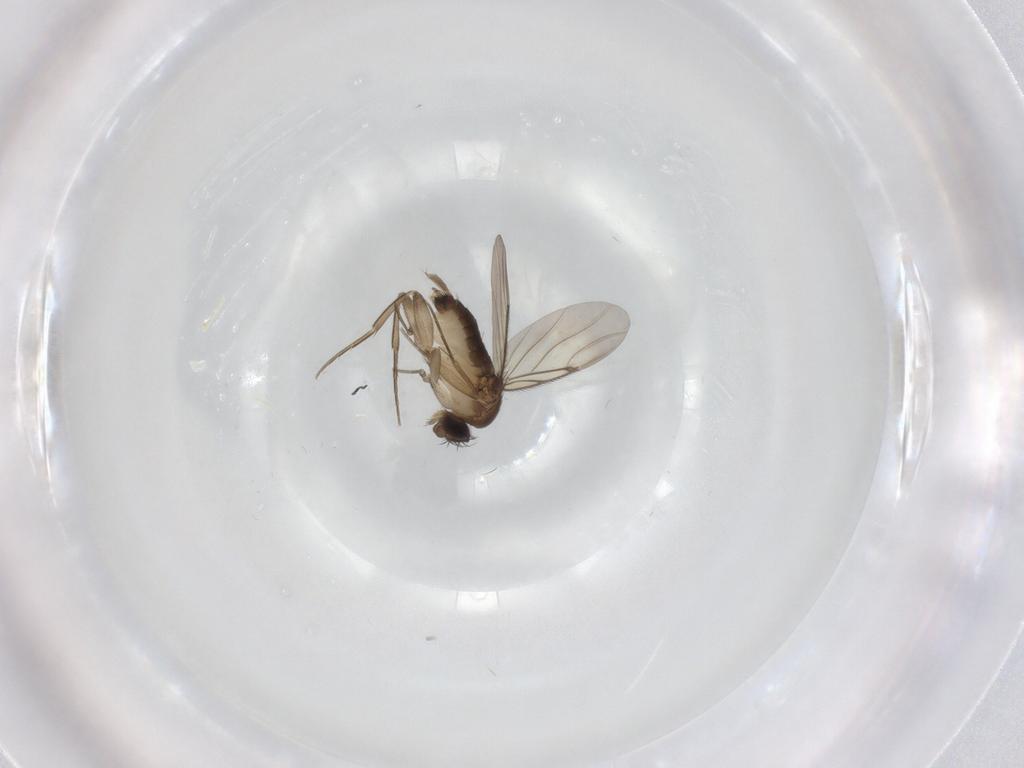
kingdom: Animalia
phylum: Arthropoda
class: Insecta
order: Diptera
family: Phoridae
